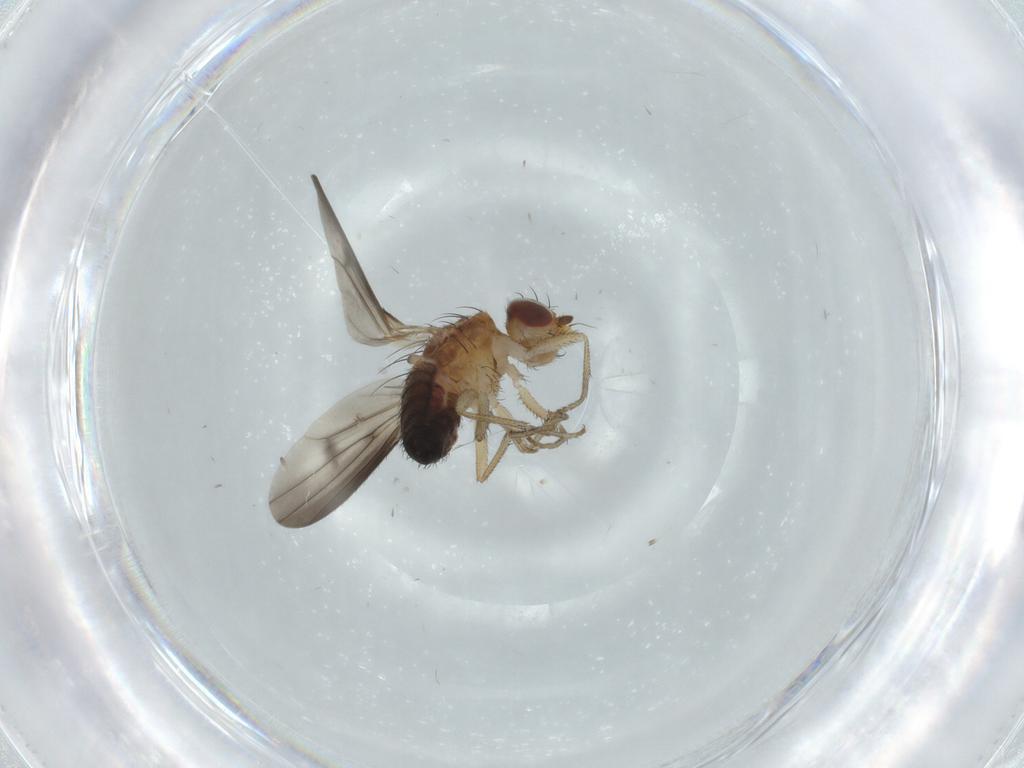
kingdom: Animalia
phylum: Arthropoda
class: Insecta
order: Diptera
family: Heleomyzidae
